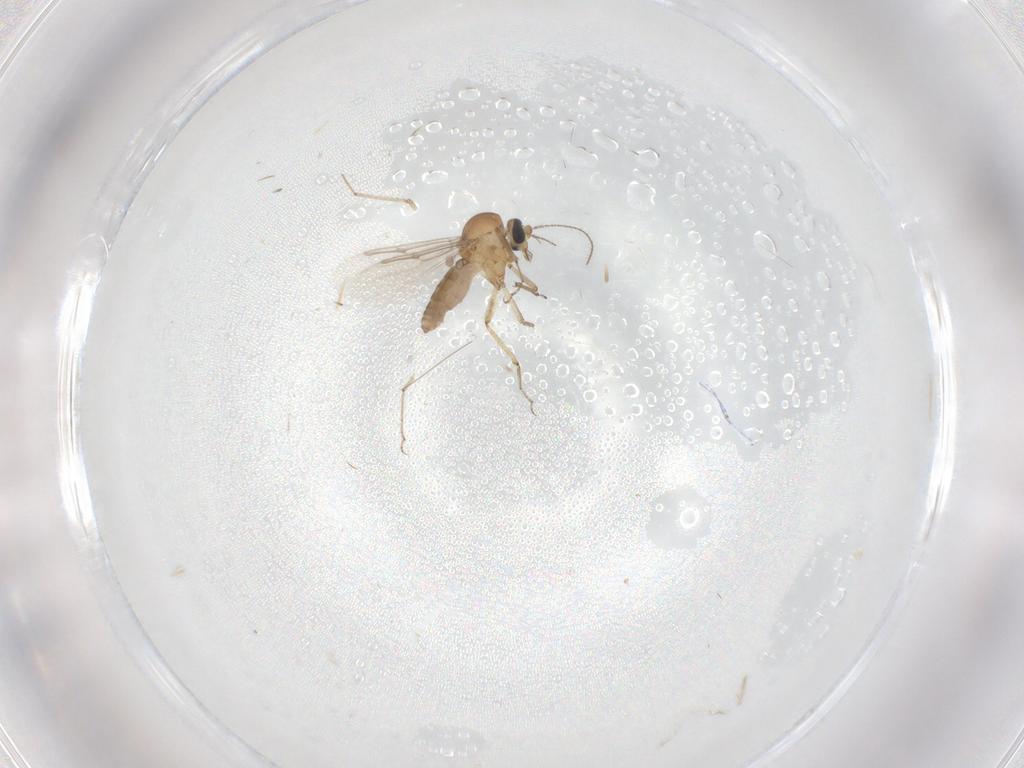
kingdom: Animalia
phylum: Arthropoda
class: Insecta
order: Diptera
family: Ceratopogonidae
